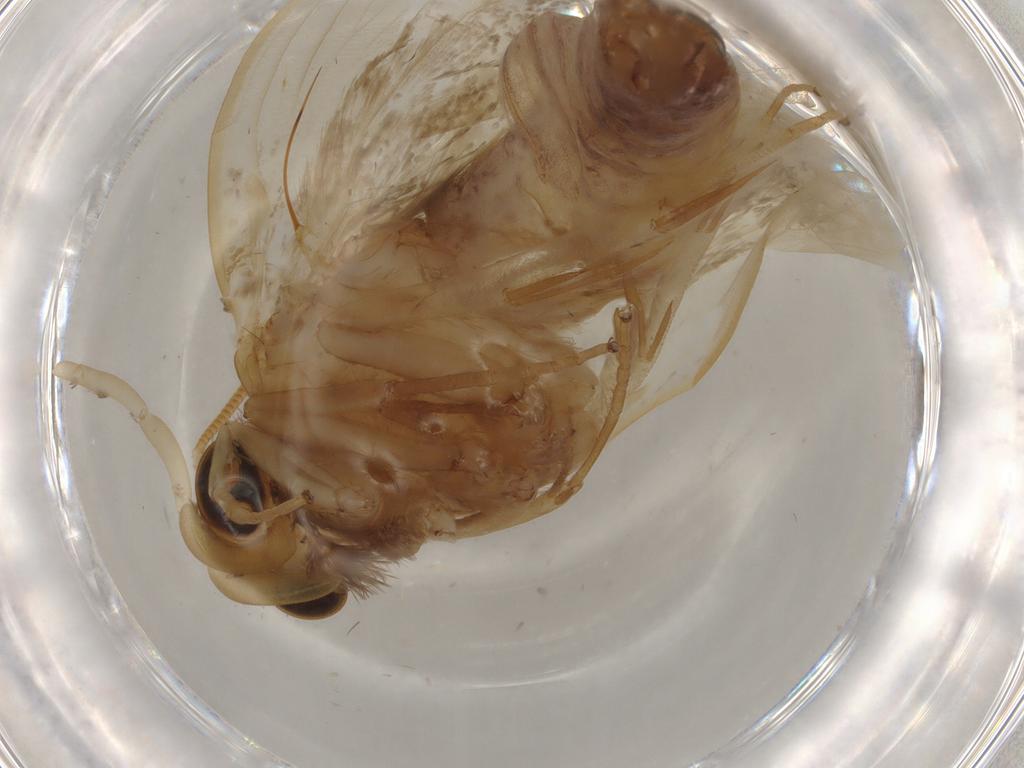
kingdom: Animalia
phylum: Arthropoda
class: Insecta
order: Lepidoptera
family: Tineidae
